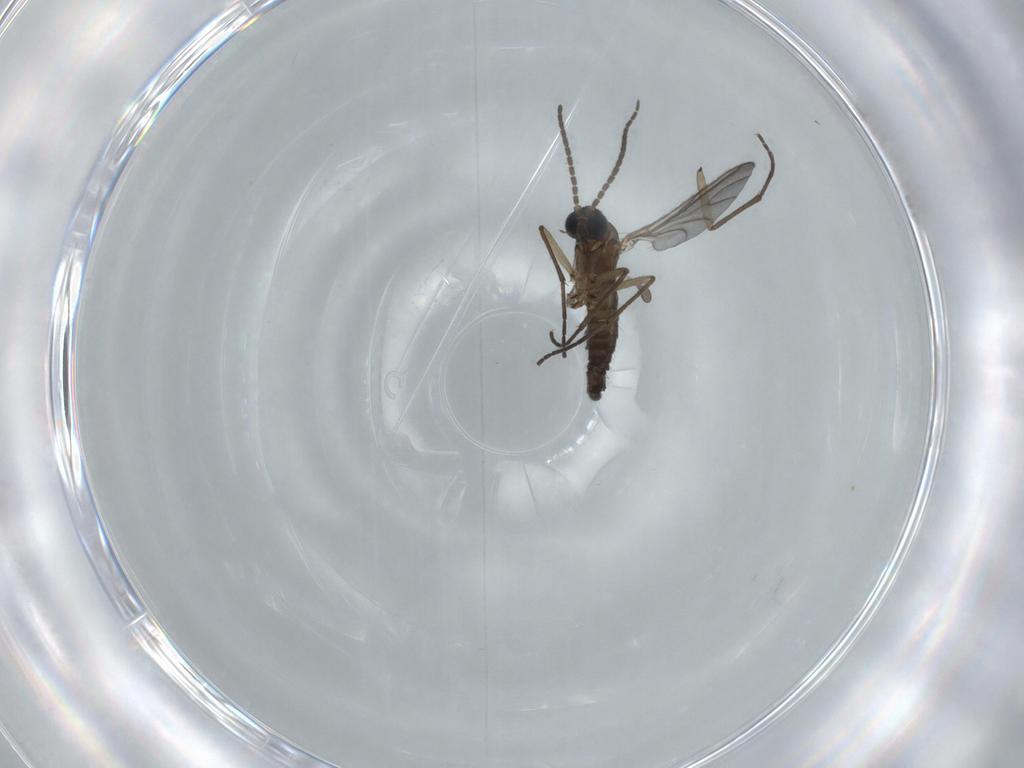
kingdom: Animalia
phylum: Arthropoda
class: Insecta
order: Diptera
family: Sciaridae
